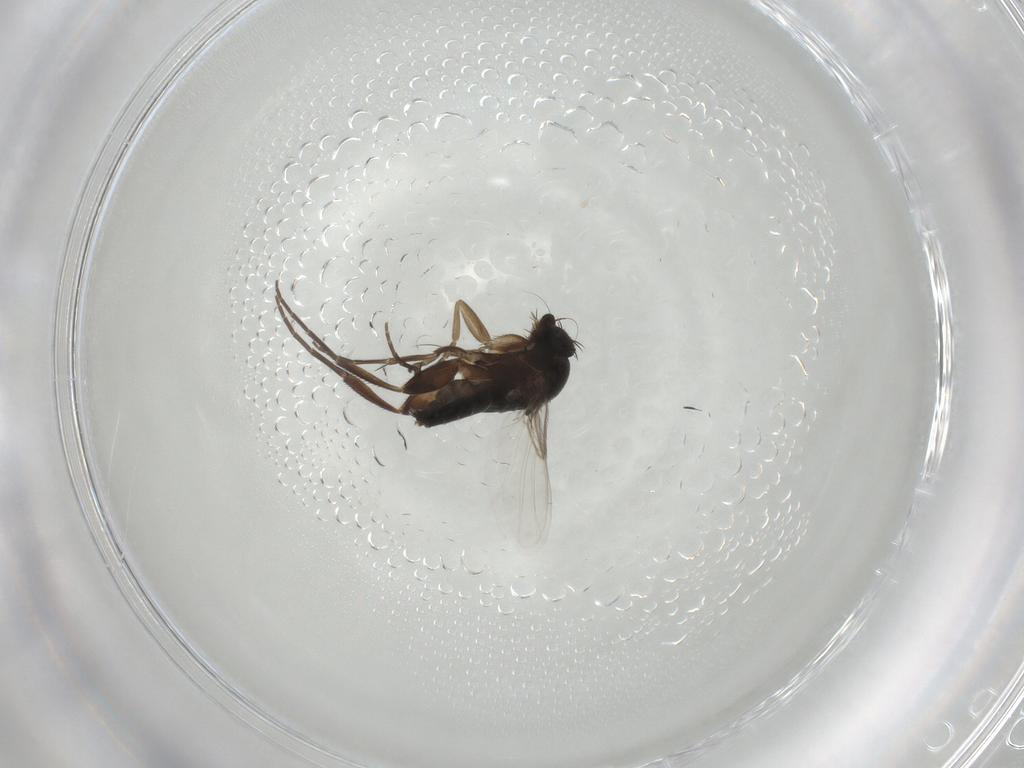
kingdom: Animalia
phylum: Arthropoda
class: Insecta
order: Diptera
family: Phoridae
